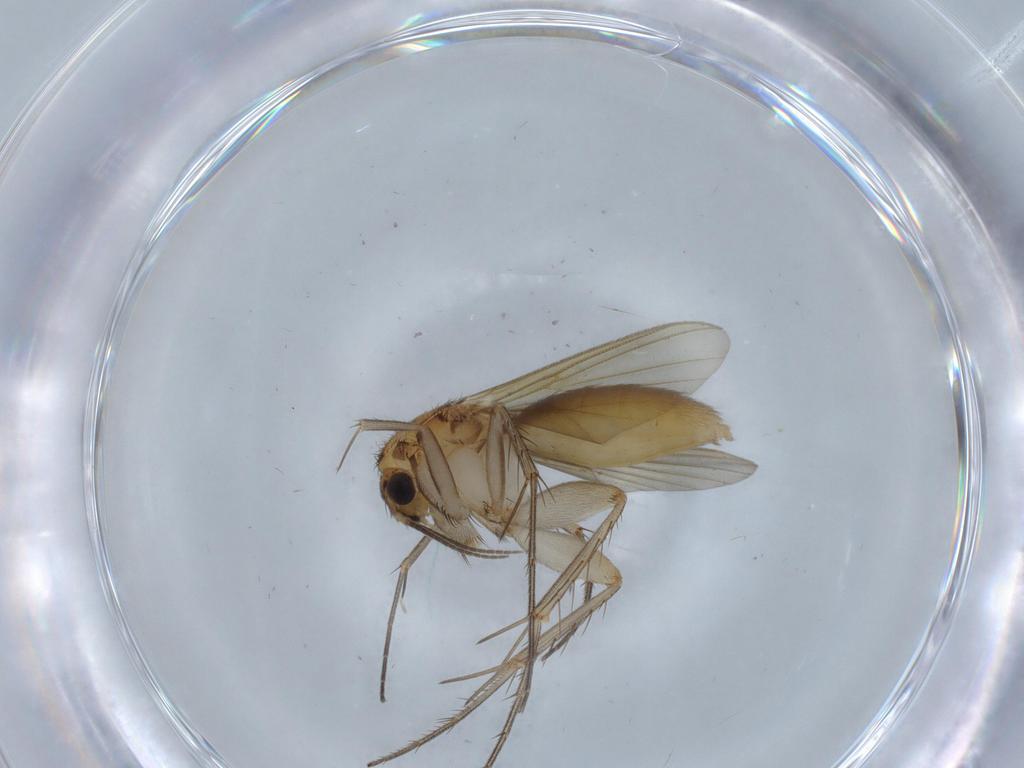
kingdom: Animalia
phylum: Arthropoda
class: Insecta
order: Diptera
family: Mycetophilidae
